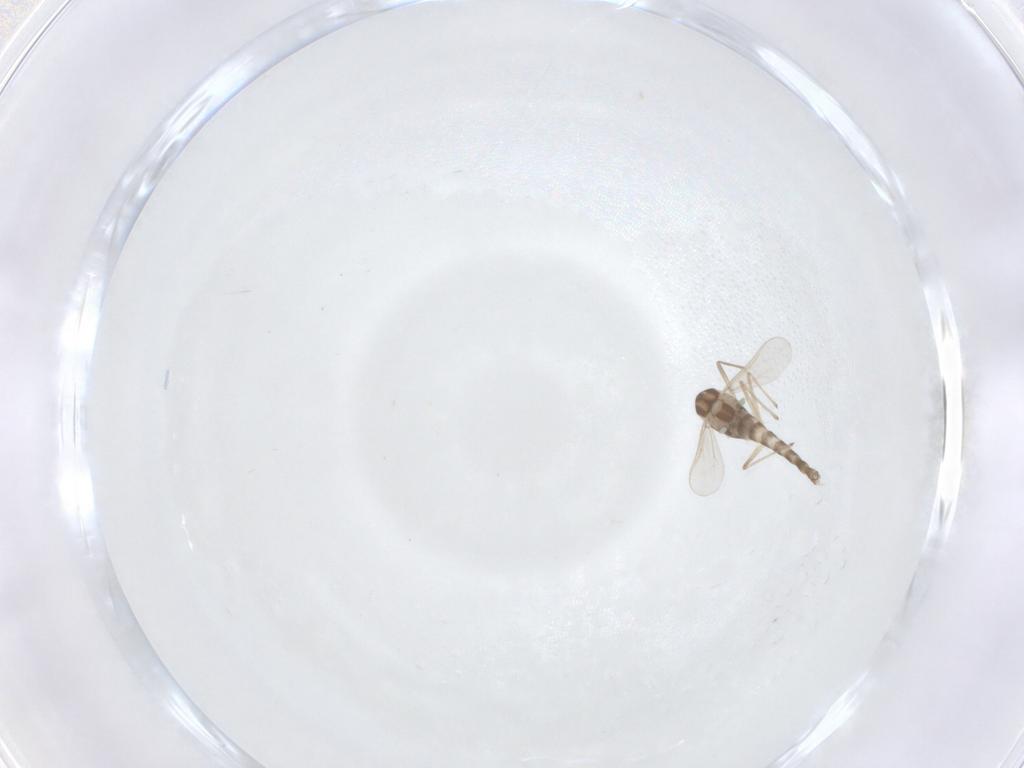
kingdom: Animalia
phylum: Arthropoda
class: Insecta
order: Diptera
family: Chironomidae
